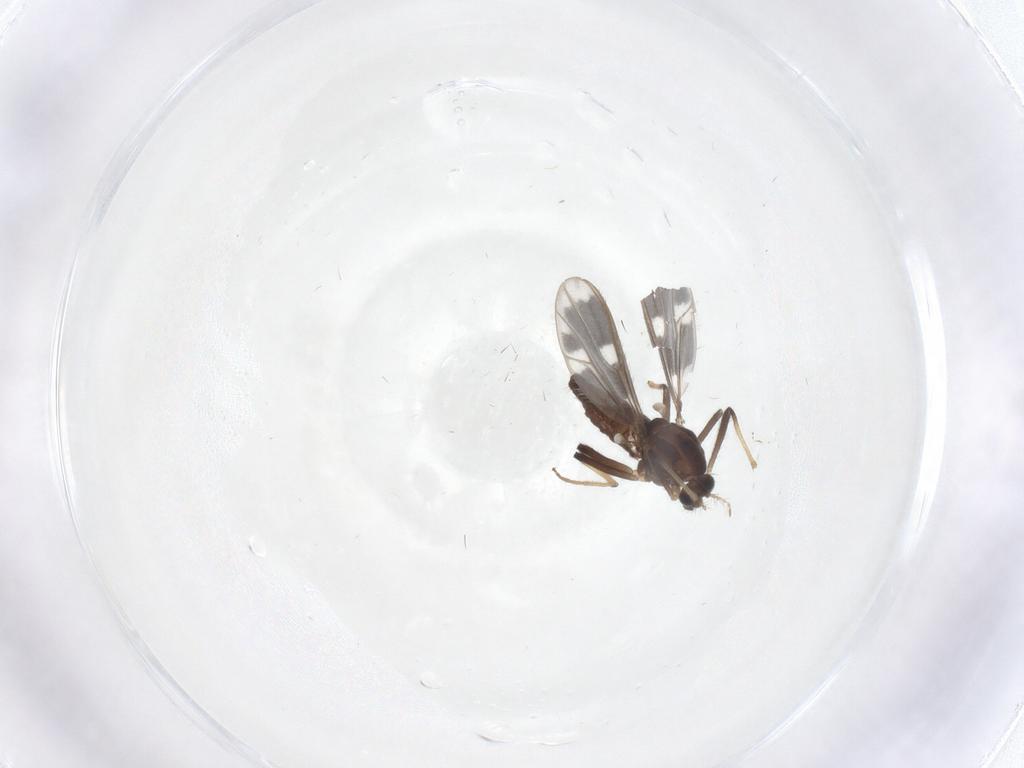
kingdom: Animalia
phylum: Arthropoda
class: Insecta
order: Diptera
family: Chironomidae
